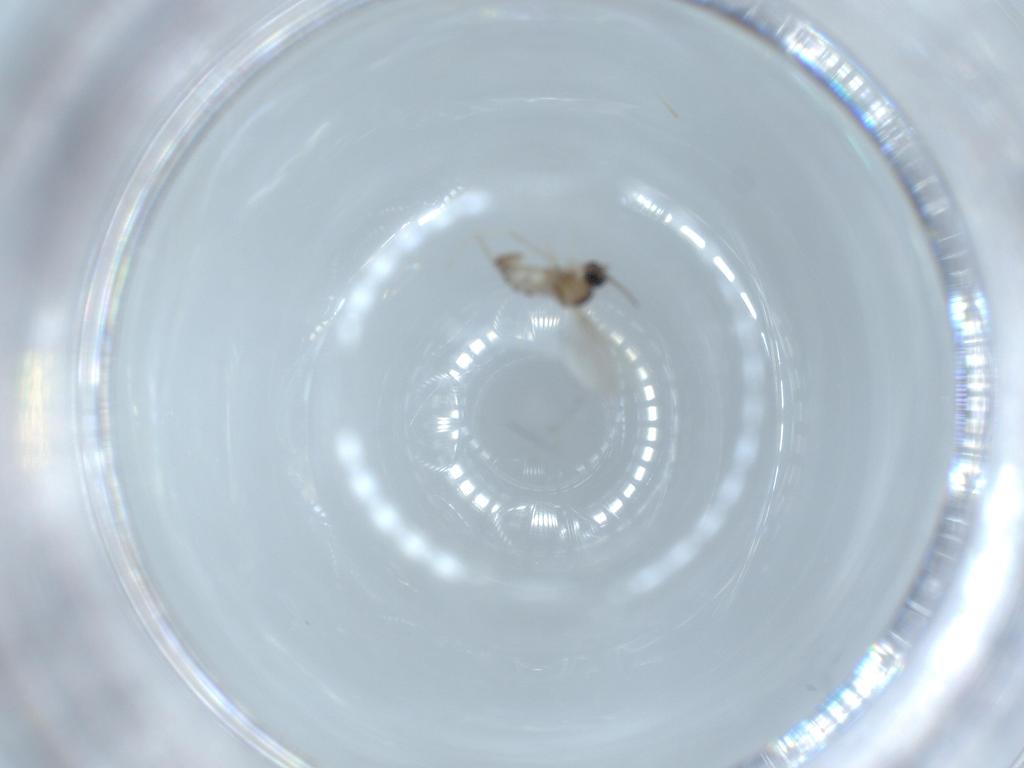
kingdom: Animalia
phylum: Arthropoda
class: Insecta
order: Diptera
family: Cecidomyiidae
